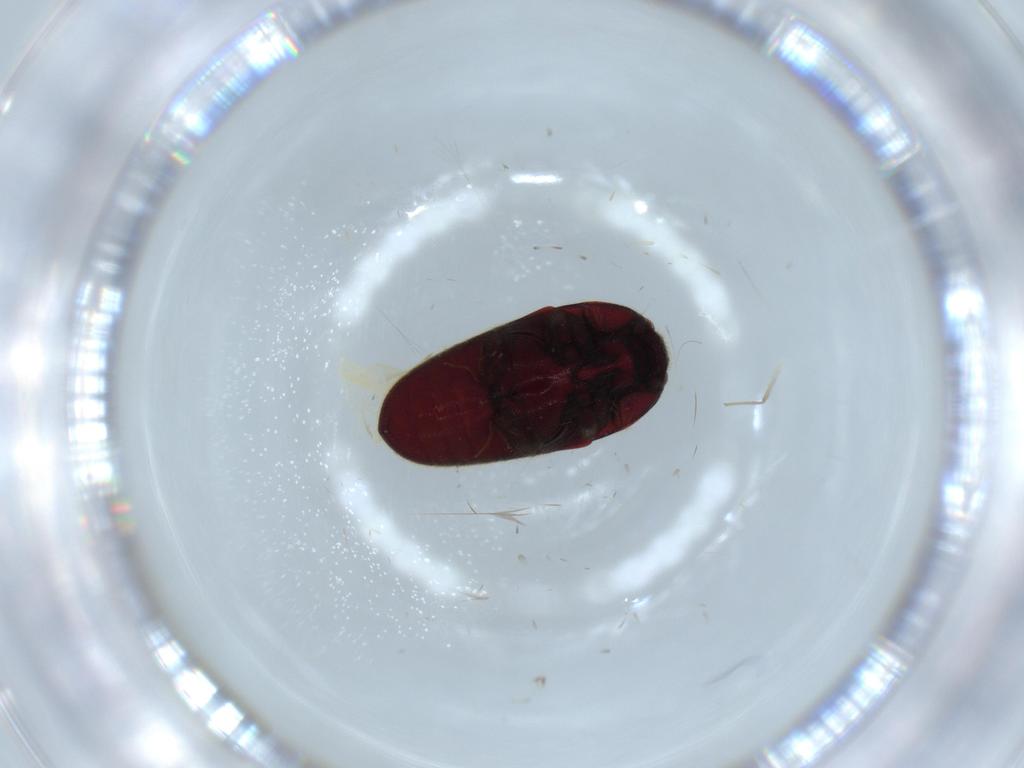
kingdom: Animalia
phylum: Arthropoda
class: Insecta
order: Coleoptera
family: Throscidae
